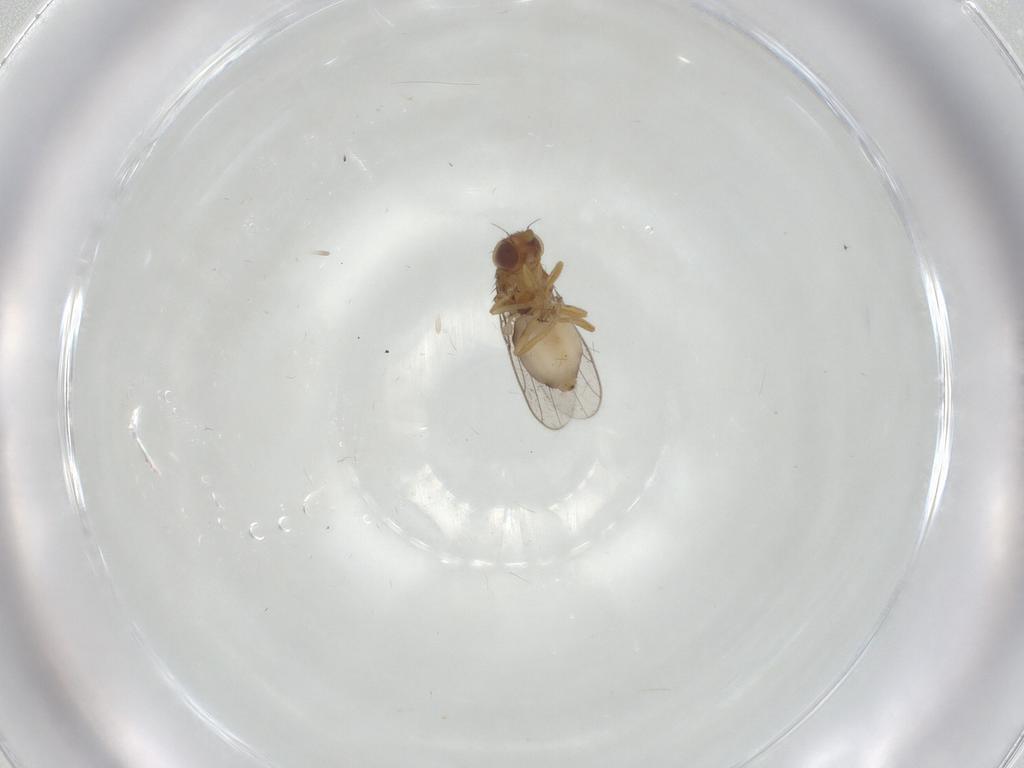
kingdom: Animalia
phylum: Arthropoda
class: Insecta
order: Diptera
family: Chloropidae
